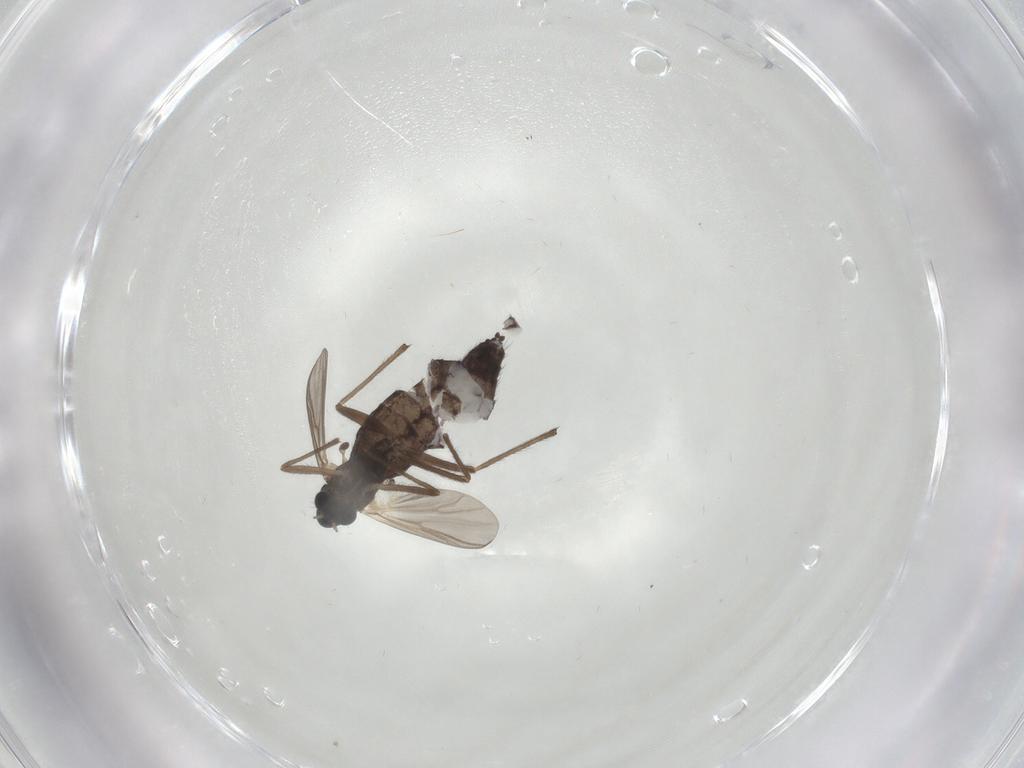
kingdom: Animalia
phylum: Arthropoda
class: Insecta
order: Diptera
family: Chironomidae
